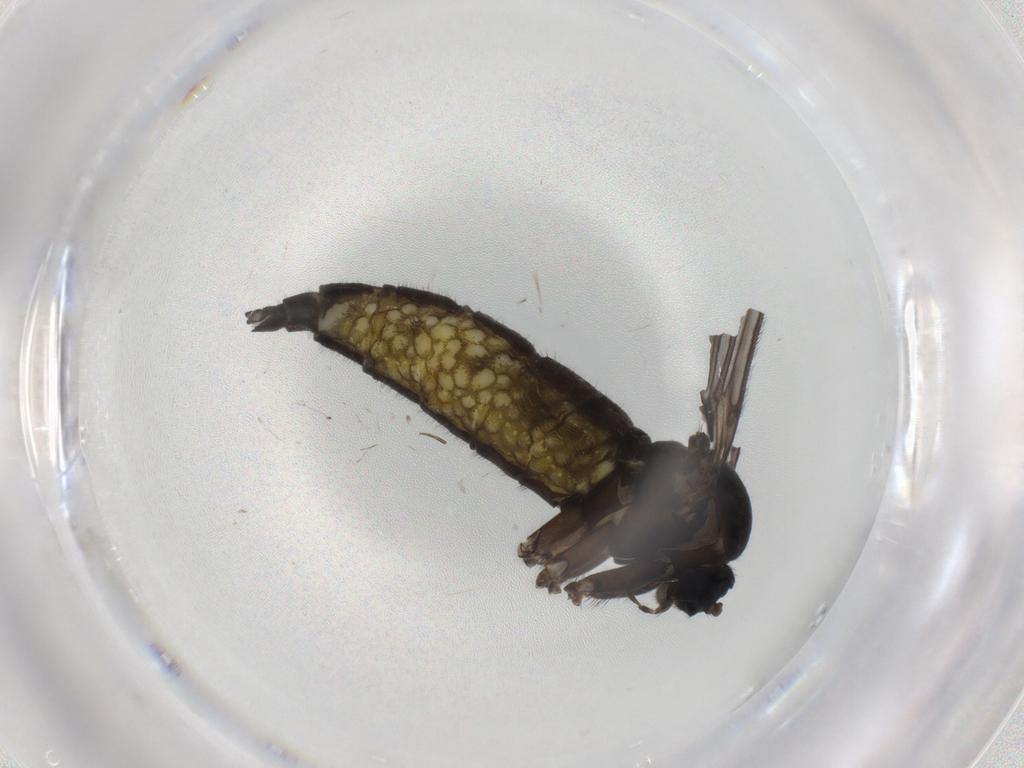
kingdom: Animalia
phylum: Arthropoda
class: Insecta
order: Diptera
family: Sciaridae
